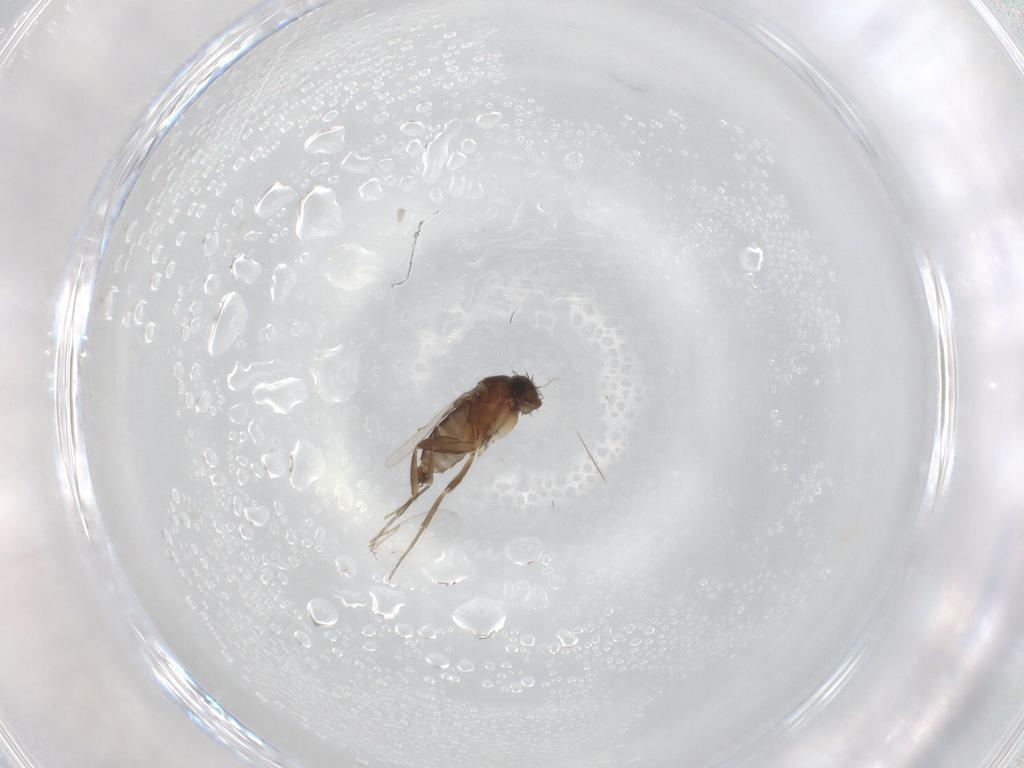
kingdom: Animalia
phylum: Arthropoda
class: Insecta
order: Diptera
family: Phoridae
